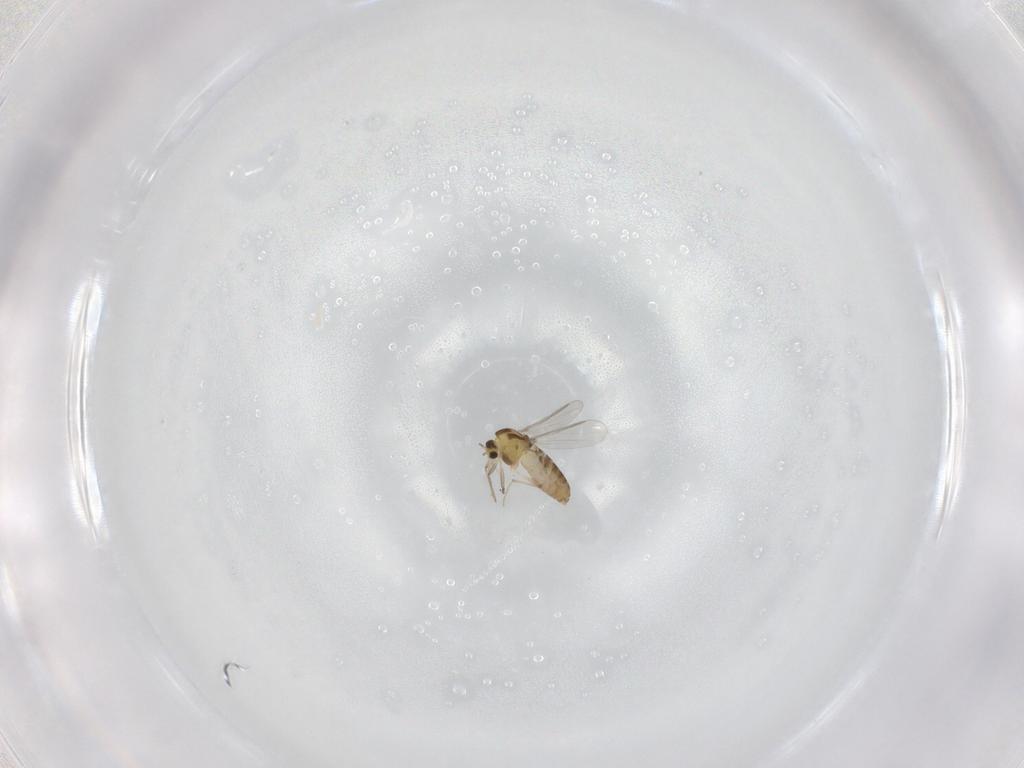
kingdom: Animalia
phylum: Arthropoda
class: Insecta
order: Diptera
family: Chironomidae
